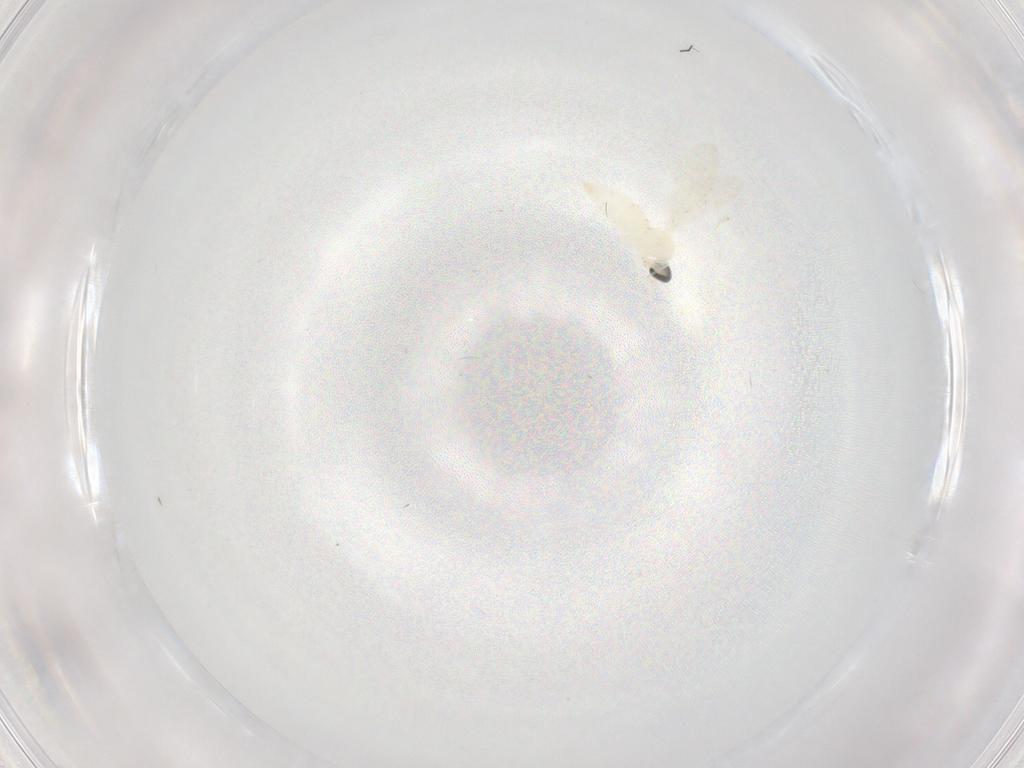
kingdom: Animalia
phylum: Arthropoda
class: Insecta
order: Diptera
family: Cecidomyiidae
